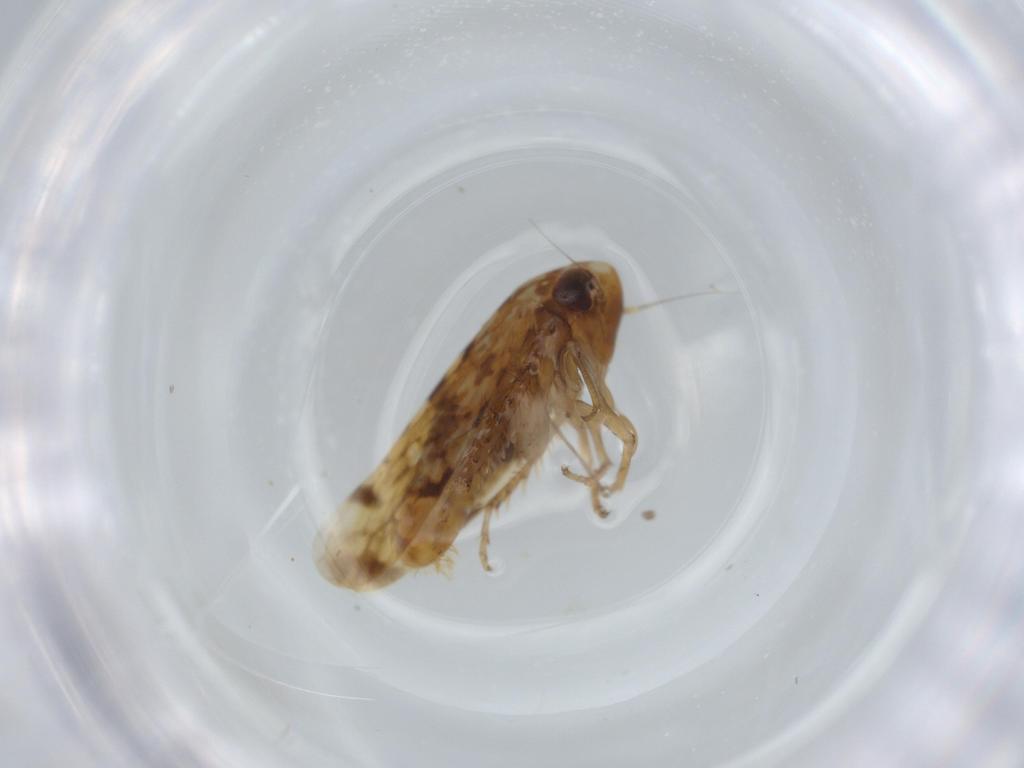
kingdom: Animalia
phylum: Arthropoda
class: Insecta
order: Hemiptera
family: Cicadellidae
